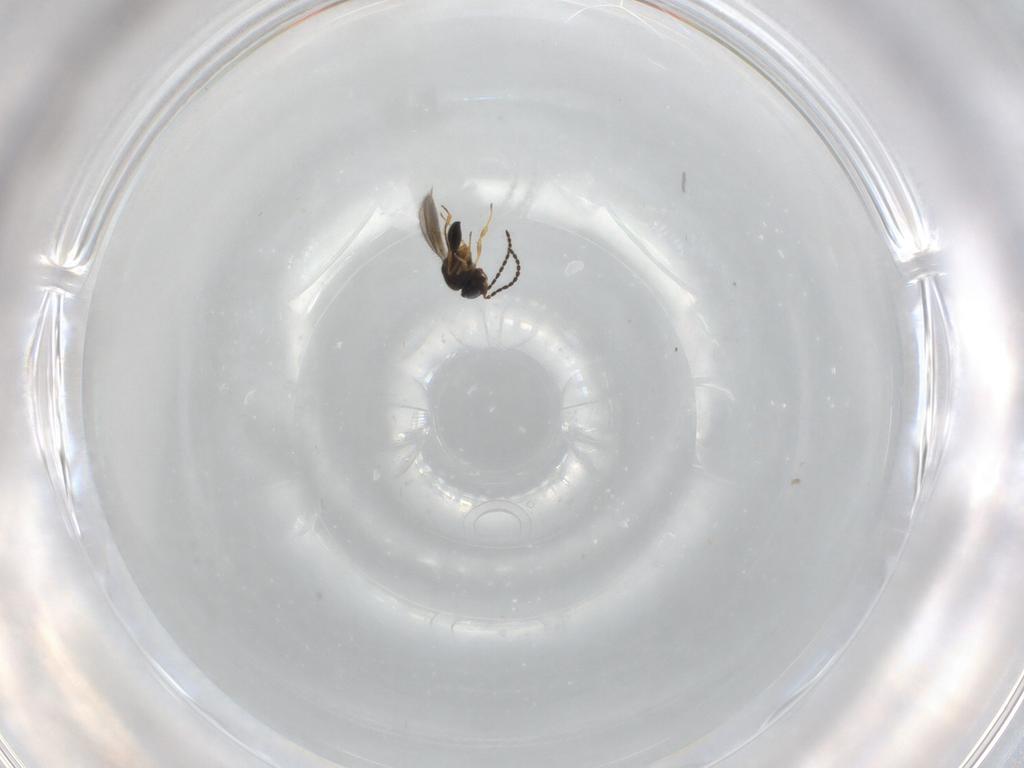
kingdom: Animalia
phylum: Arthropoda
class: Insecta
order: Hymenoptera
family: Scelionidae
